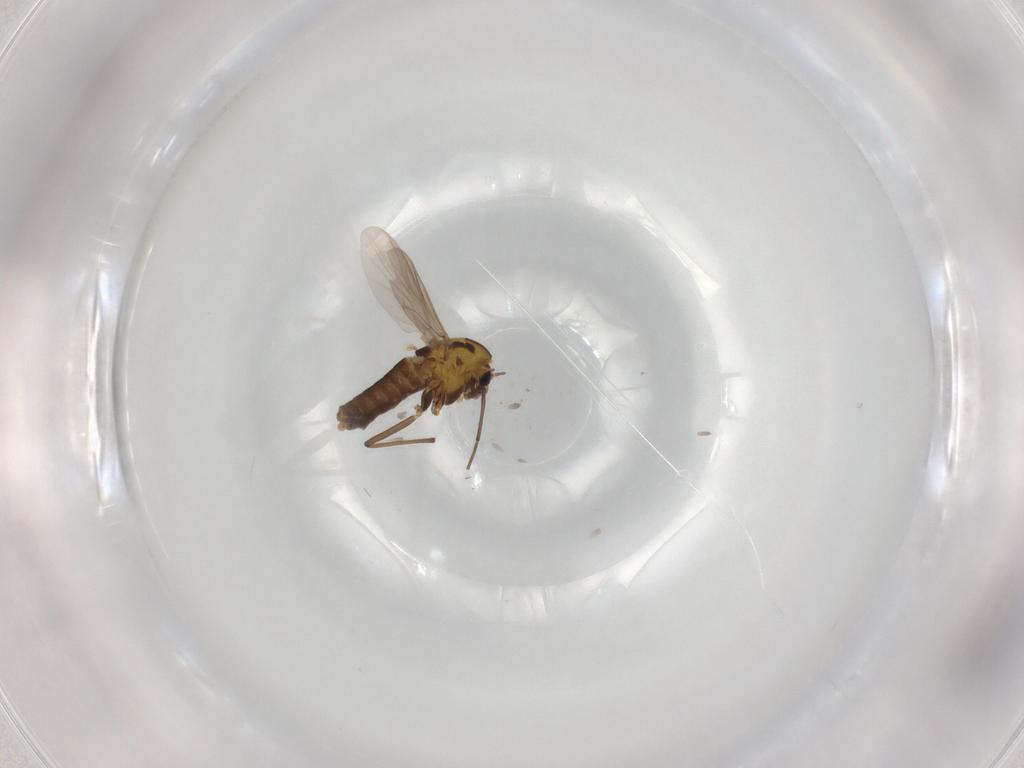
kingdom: Animalia
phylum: Arthropoda
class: Insecta
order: Diptera
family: Chironomidae
